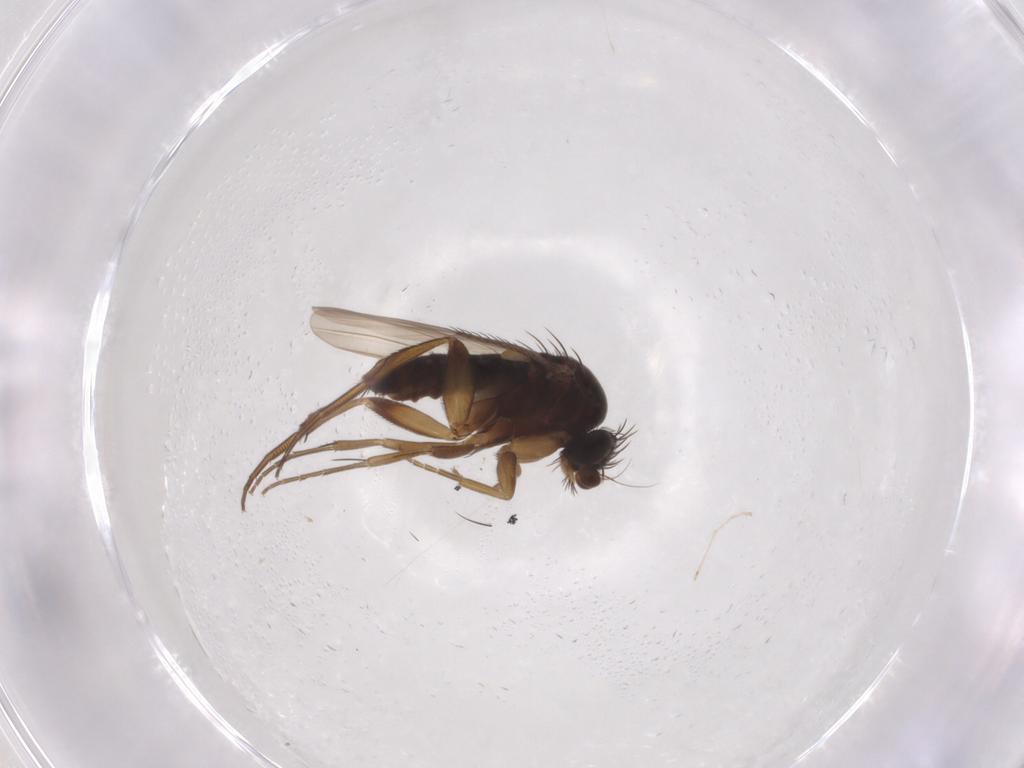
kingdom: Animalia
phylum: Arthropoda
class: Insecta
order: Diptera
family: Phoridae
